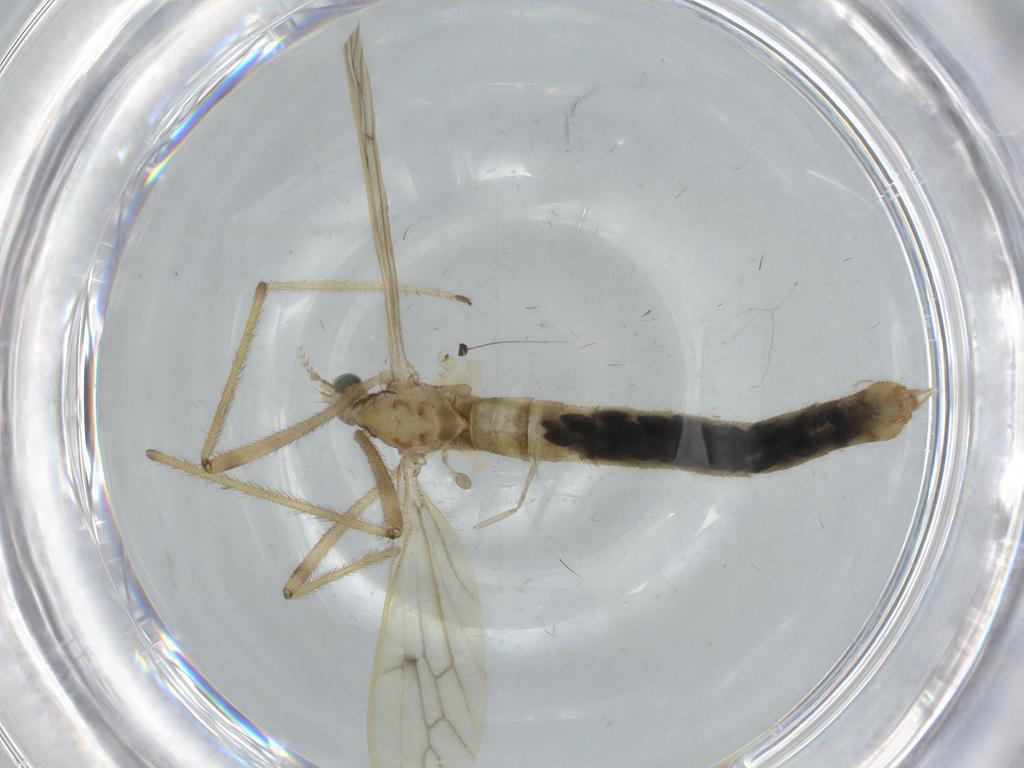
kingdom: Animalia
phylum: Arthropoda
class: Insecta
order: Diptera
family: Limoniidae
